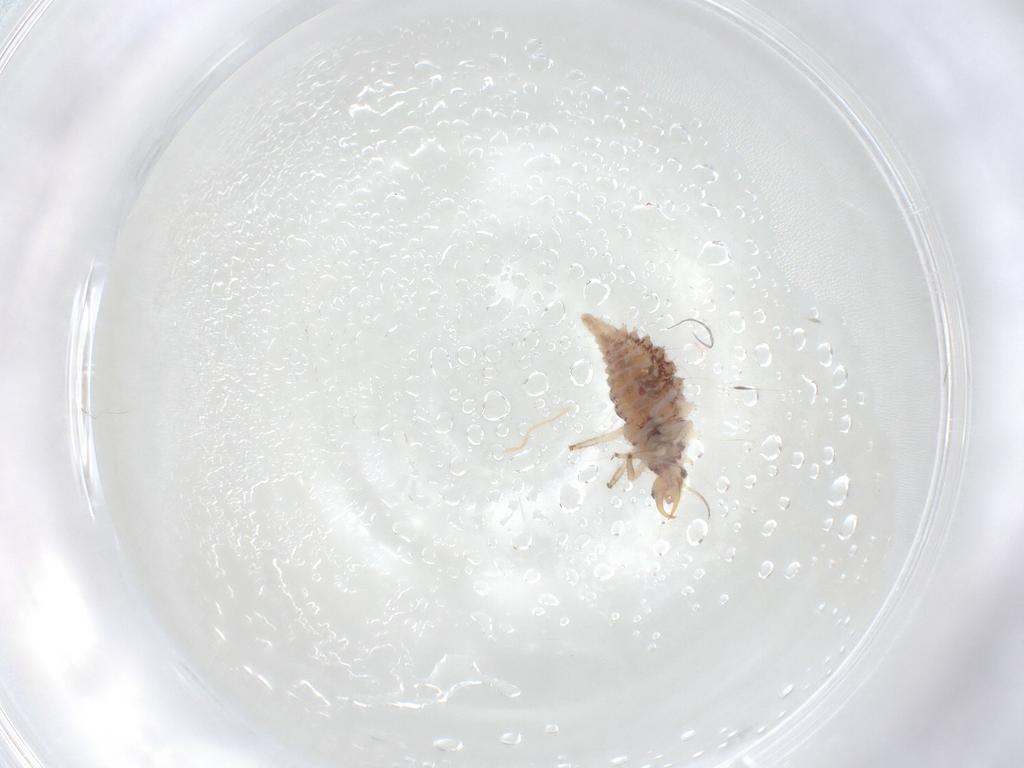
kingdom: Animalia
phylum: Arthropoda
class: Insecta
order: Neuroptera
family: Chrysopidae
